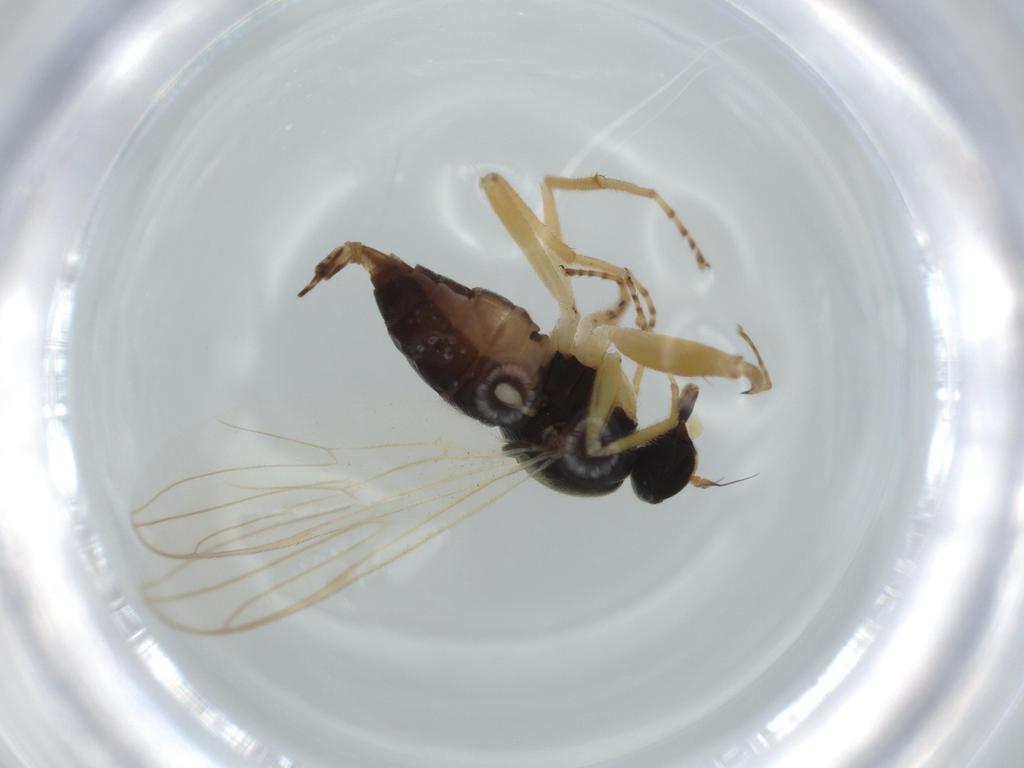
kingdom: Animalia
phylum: Arthropoda
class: Insecta
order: Diptera
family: Hybotidae
